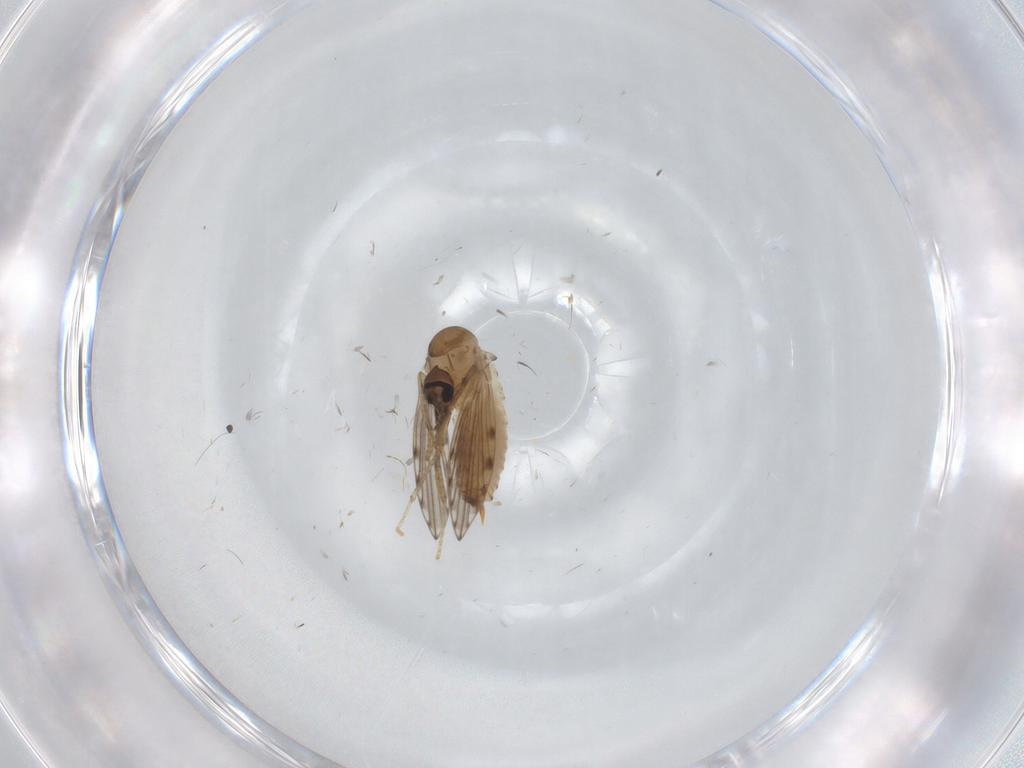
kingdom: Animalia
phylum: Arthropoda
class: Insecta
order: Diptera
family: Psychodidae
